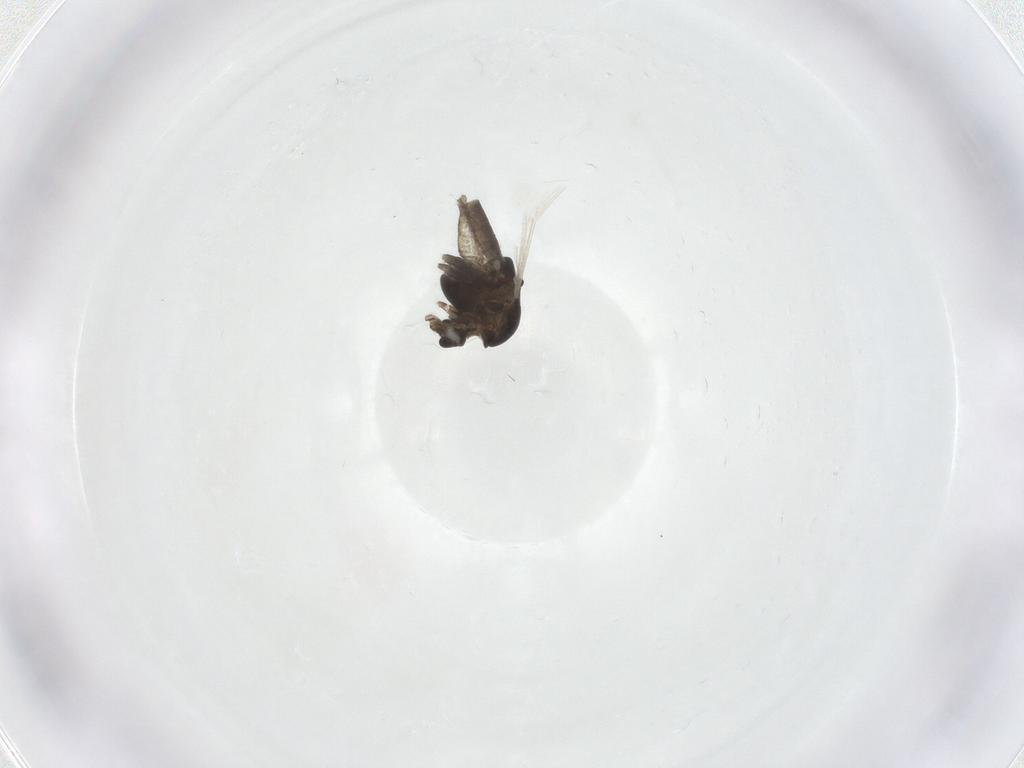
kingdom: Animalia
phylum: Arthropoda
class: Insecta
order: Diptera
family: Chironomidae
